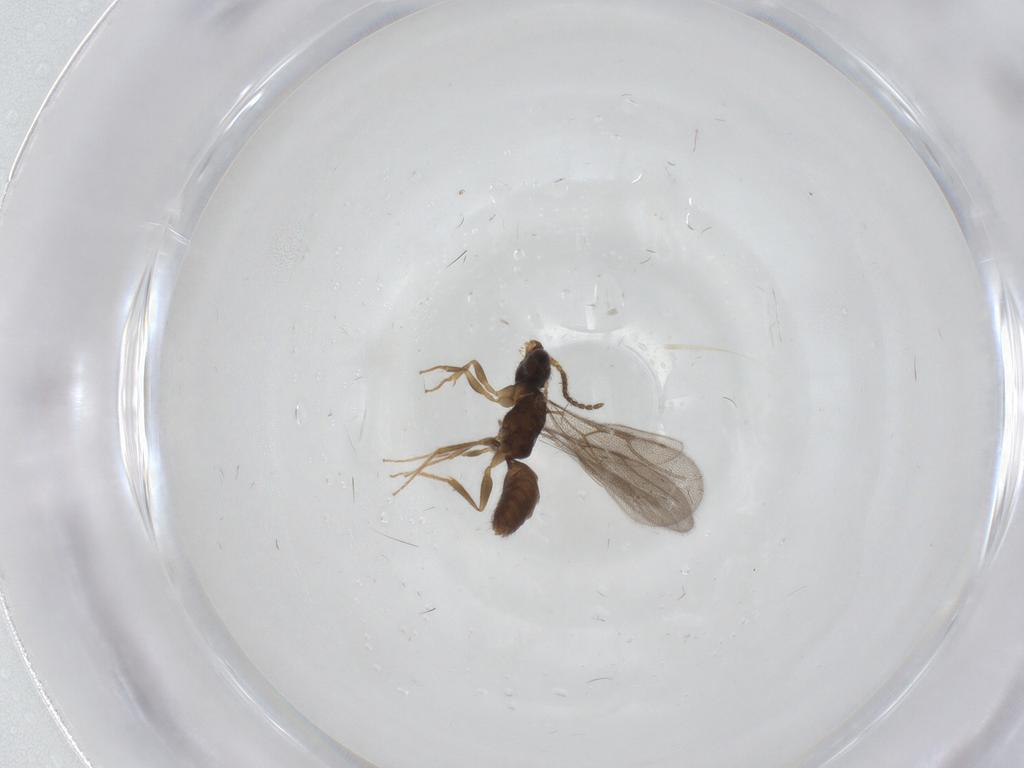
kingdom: Animalia
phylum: Arthropoda
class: Insecta
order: Hymenoptera
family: Bethylidae
